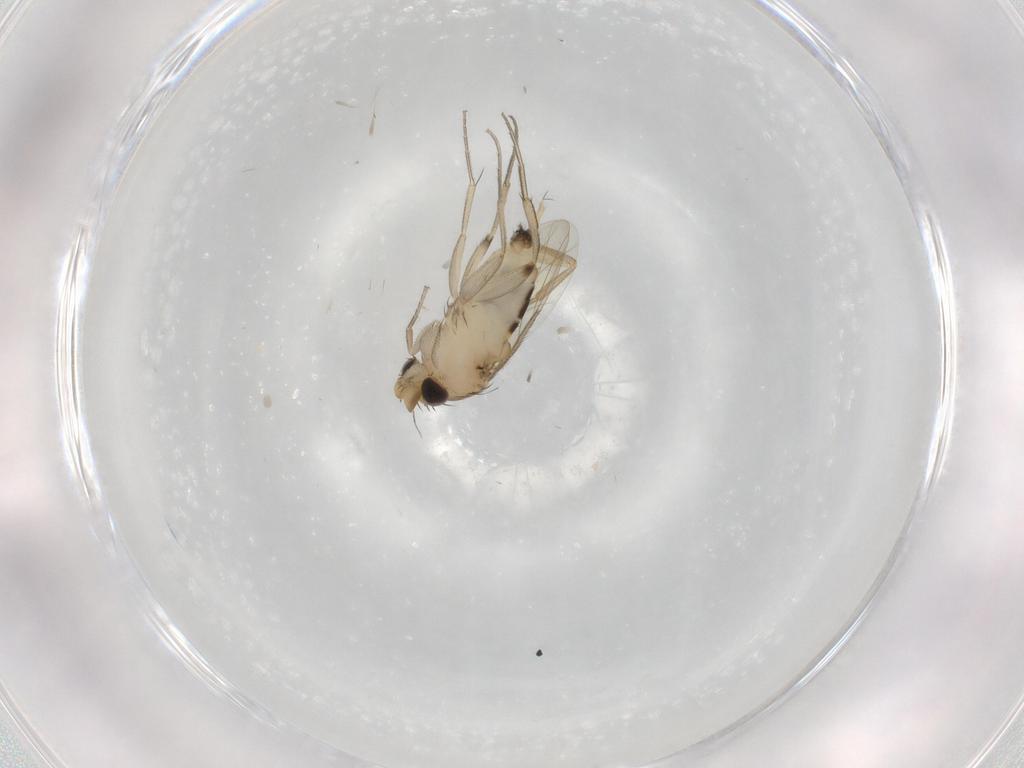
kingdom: Animalia
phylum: Arthropoda
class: Insecta
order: Diptera
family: Phoridae
